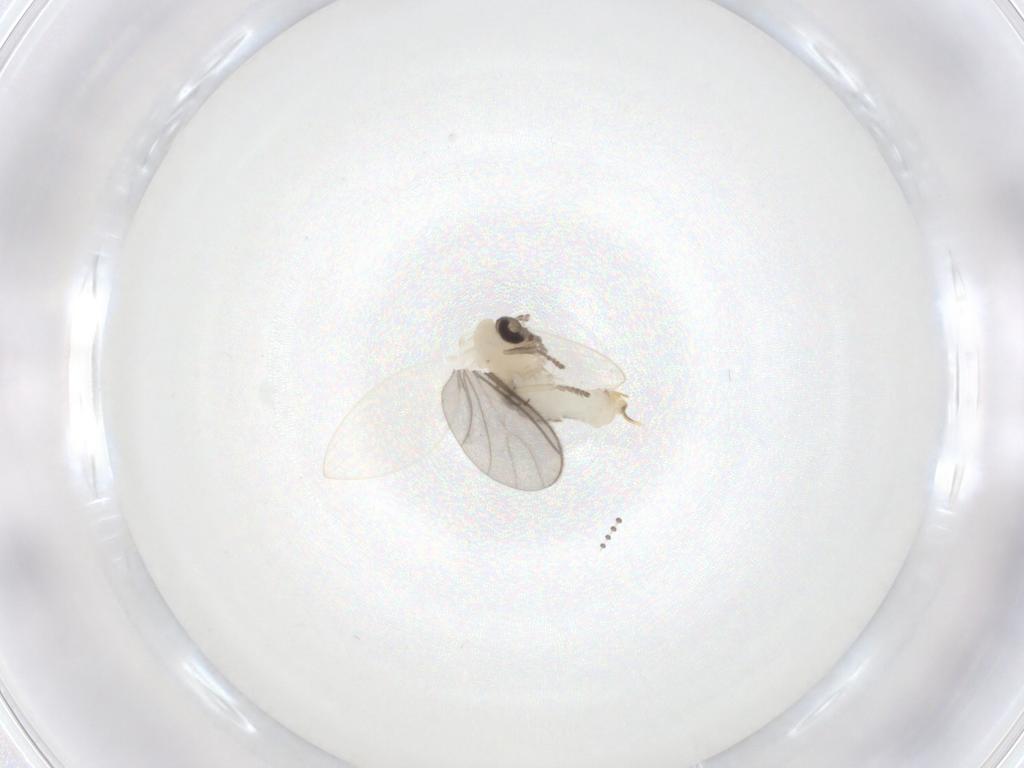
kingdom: Animalia
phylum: Arthropoda
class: Insecta
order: Diptera
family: Psychodidae
